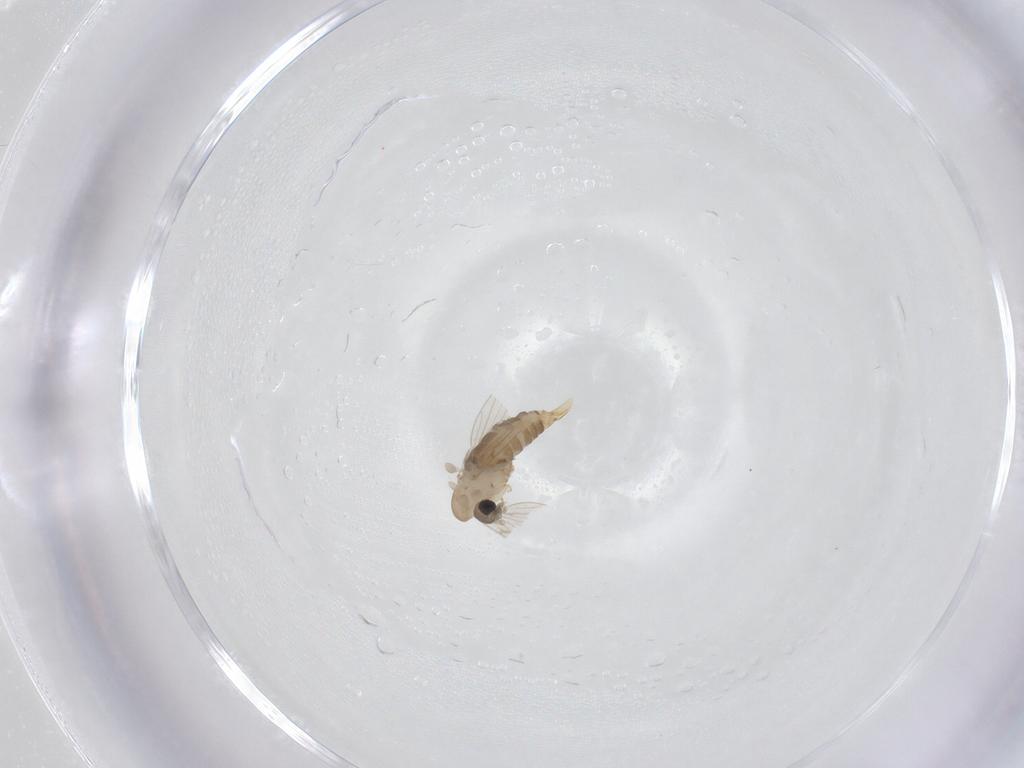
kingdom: Animalia
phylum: Arthropoda
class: Insecta
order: Diptera
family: Psychodidae
